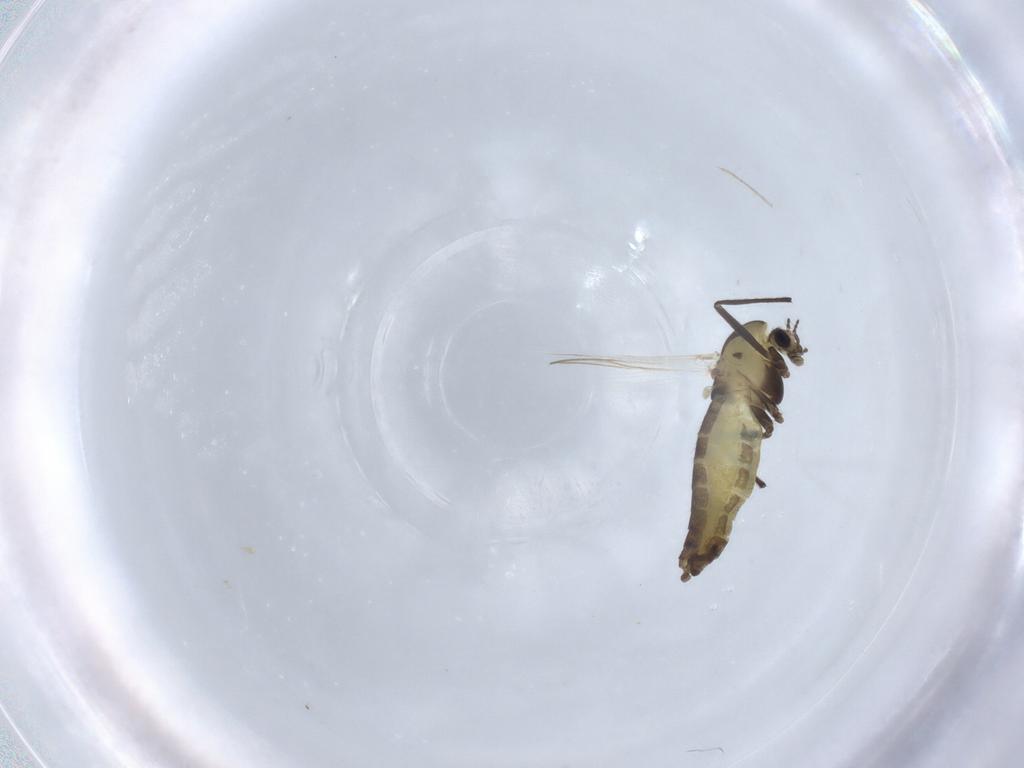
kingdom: Animalia
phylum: Arthropoda
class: Insecta
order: Diptera
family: Chironomidae
